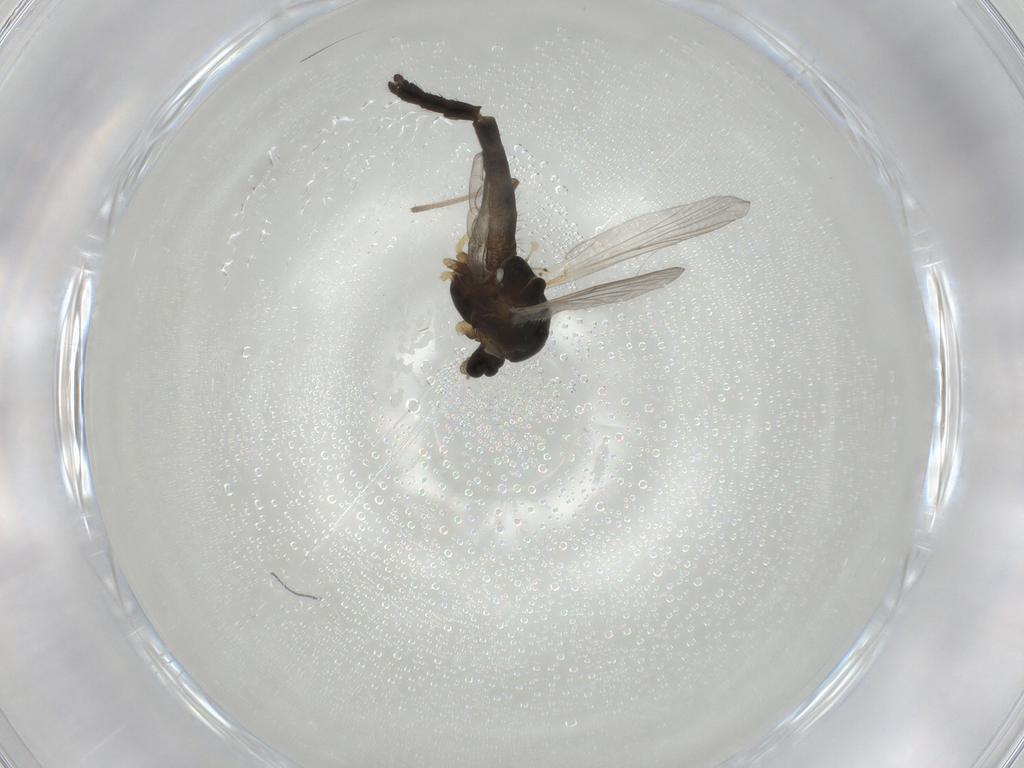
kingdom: Animalia
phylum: Arthropoda
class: Insecta
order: Diptera
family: Chironomidae
